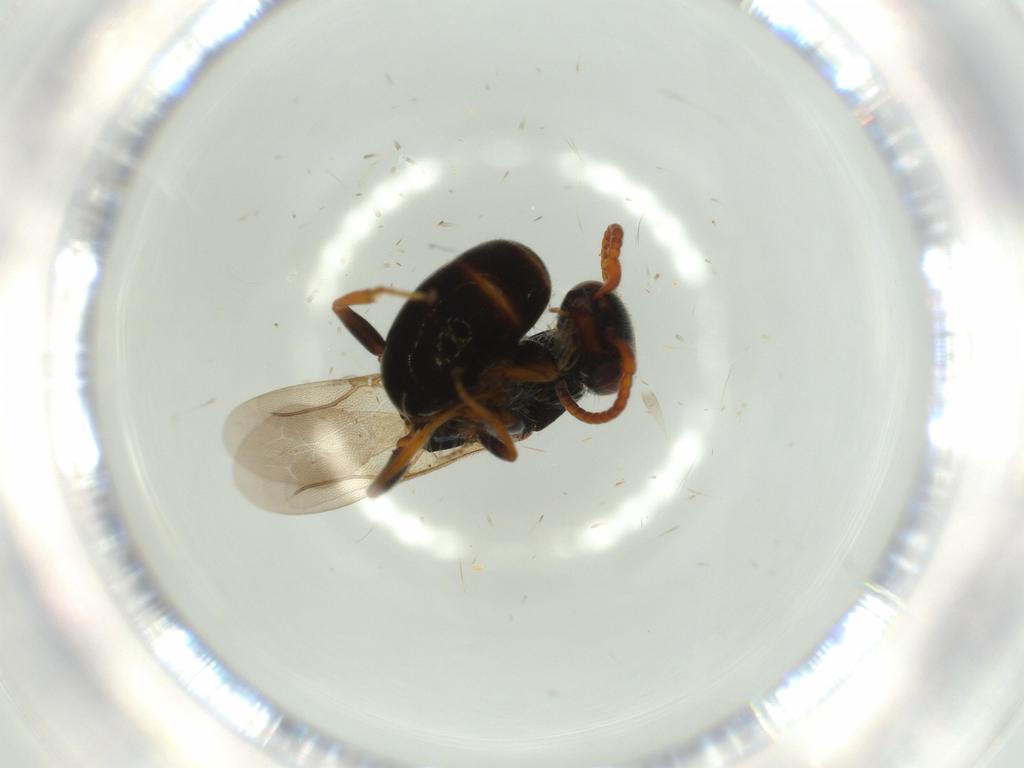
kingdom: Animalia
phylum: Arthropoda
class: Insecta
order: Hymenoptera
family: Bethylidae
